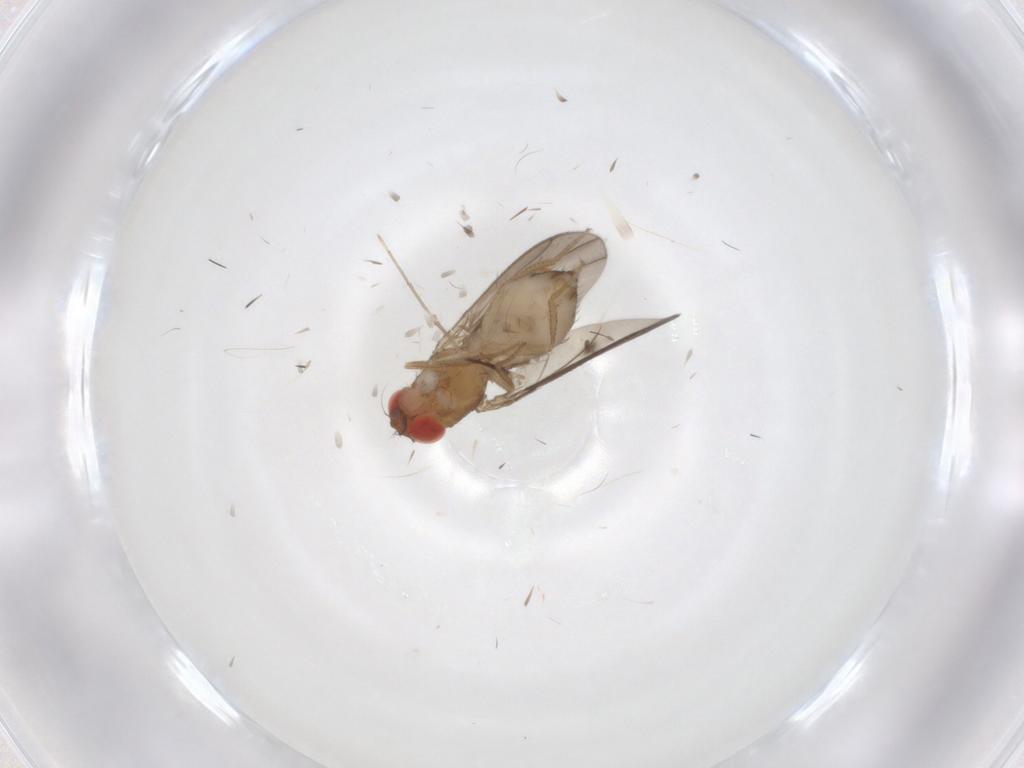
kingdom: Animalia
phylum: Arthropoda
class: Insecta
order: Diptera
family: Drosophilidae
